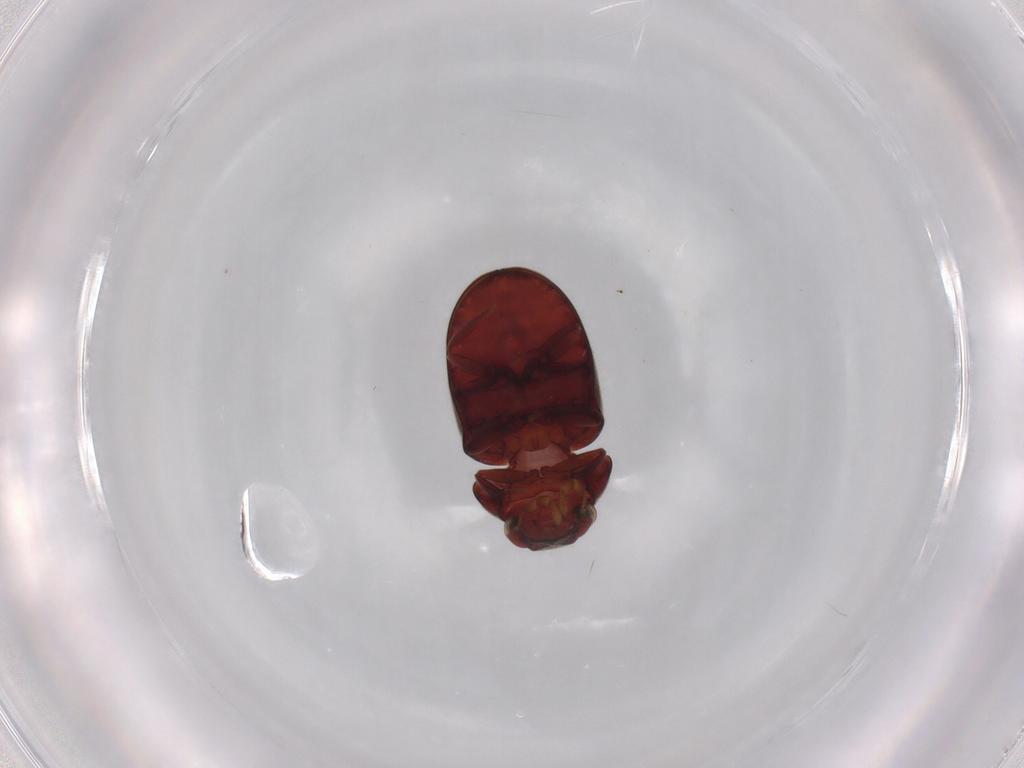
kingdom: Animalia
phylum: Arthropoda
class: Insecta
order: Coleoptera
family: Ptinidae
